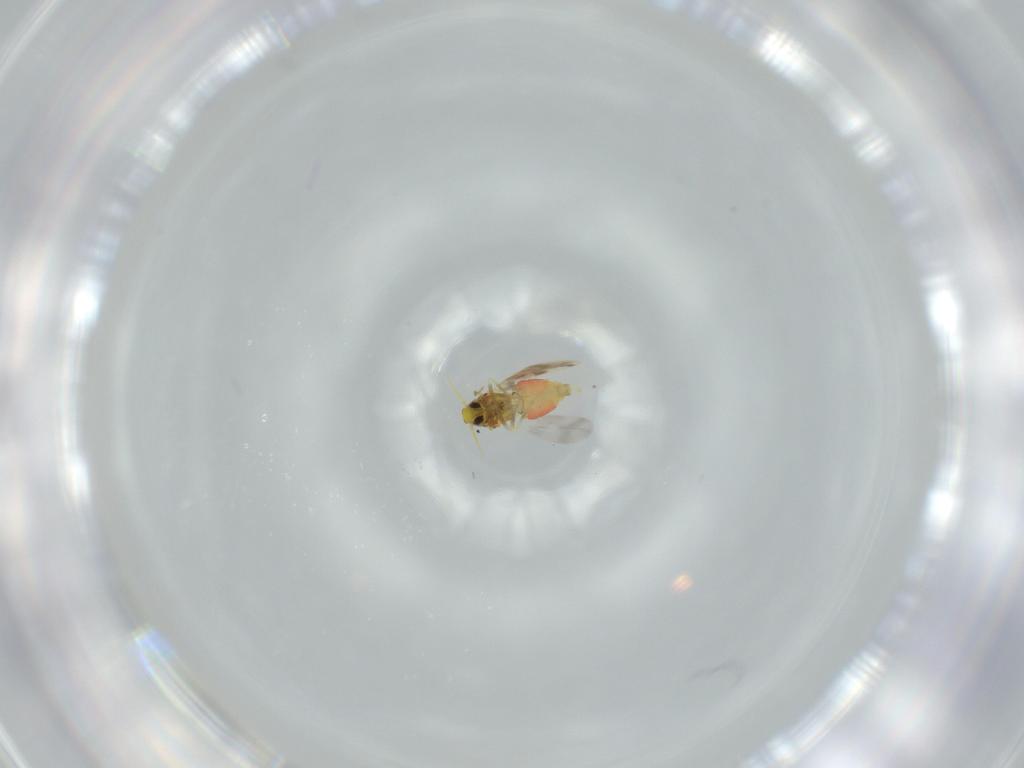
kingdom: Animalia
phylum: Arthropoda
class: Insecta
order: Hemiptera
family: Aleyrodidae
